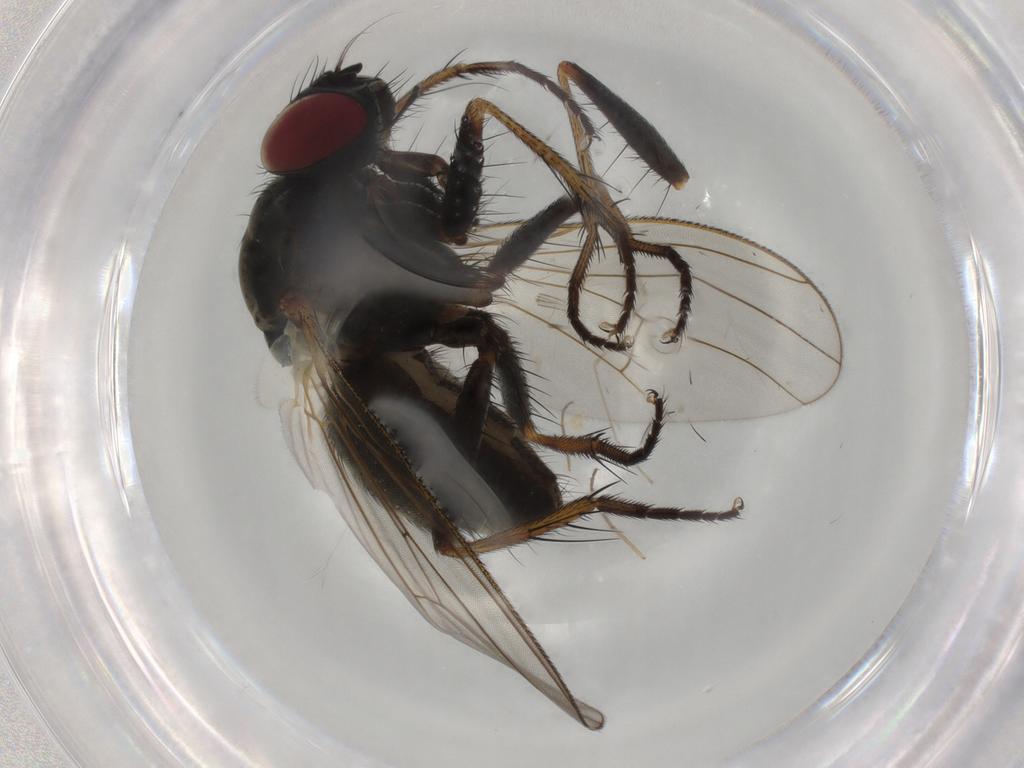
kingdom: Animalia
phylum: Arthropoda
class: Insecta
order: Diptera
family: Muscidae
